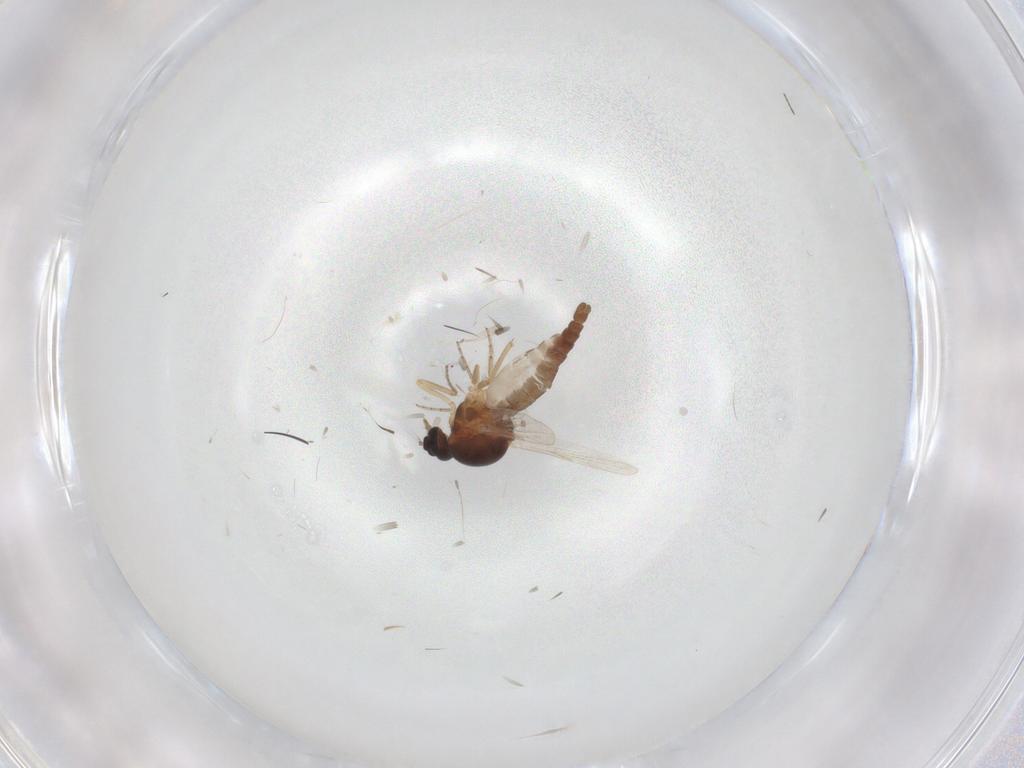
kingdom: Animalia
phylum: Arthropoda
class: Insecta
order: Diptera
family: Ceratopogonidae
